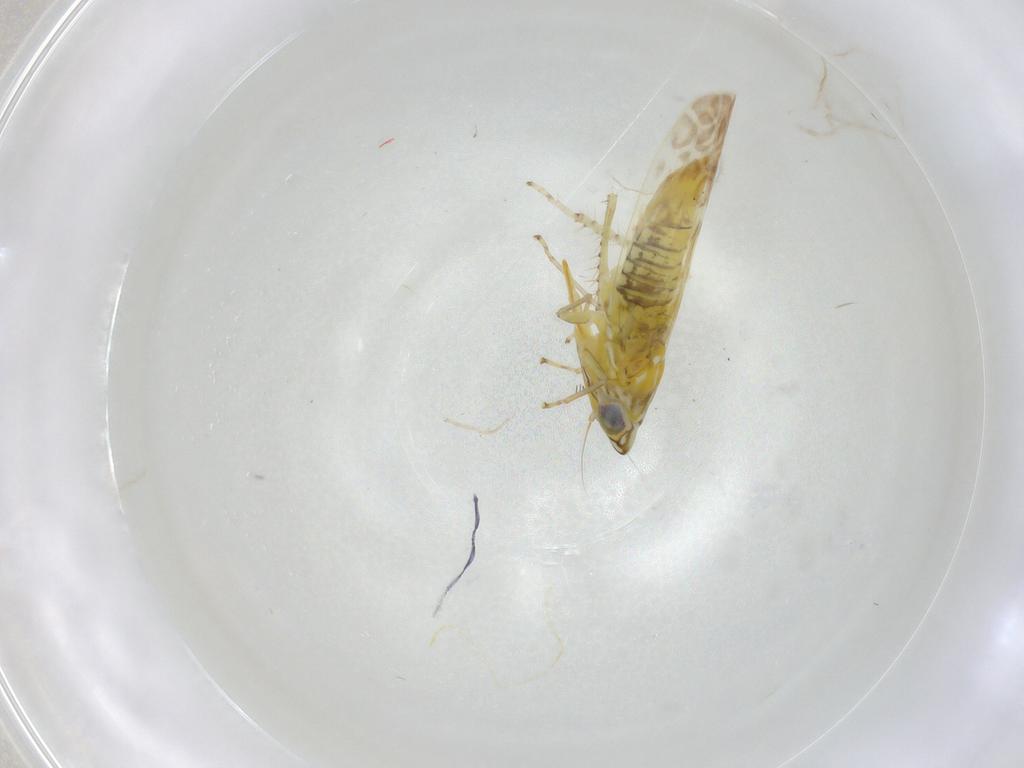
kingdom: Animalia
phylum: Arthropoda
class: Insecta
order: Hemiptera
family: Cicadellidae
